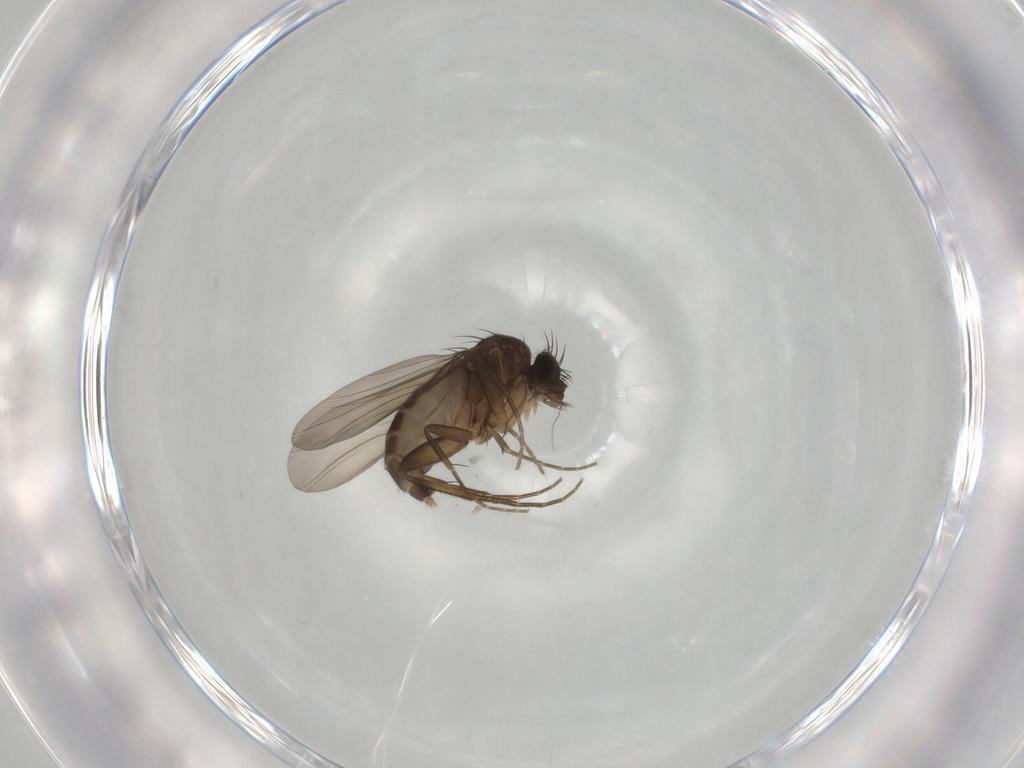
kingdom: Animalia
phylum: Arthropoda
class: Insecta
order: Diptera
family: Phoridae
